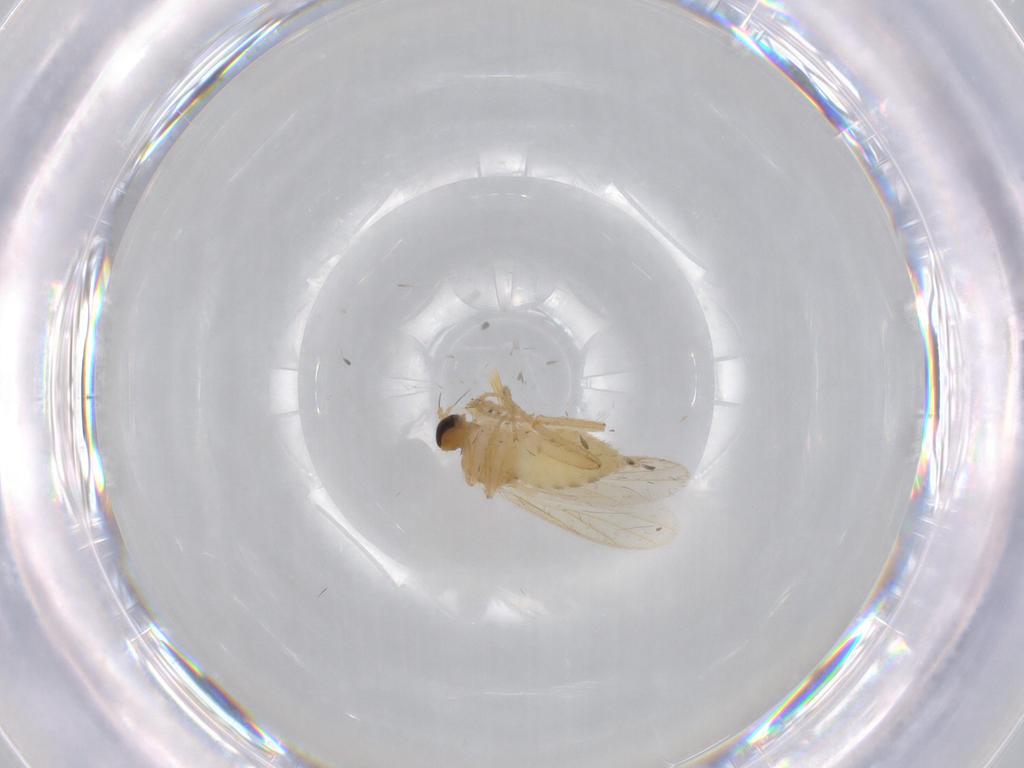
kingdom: Animalia
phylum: Arthropoda
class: Insecta
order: Diptera
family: Hybotidae
